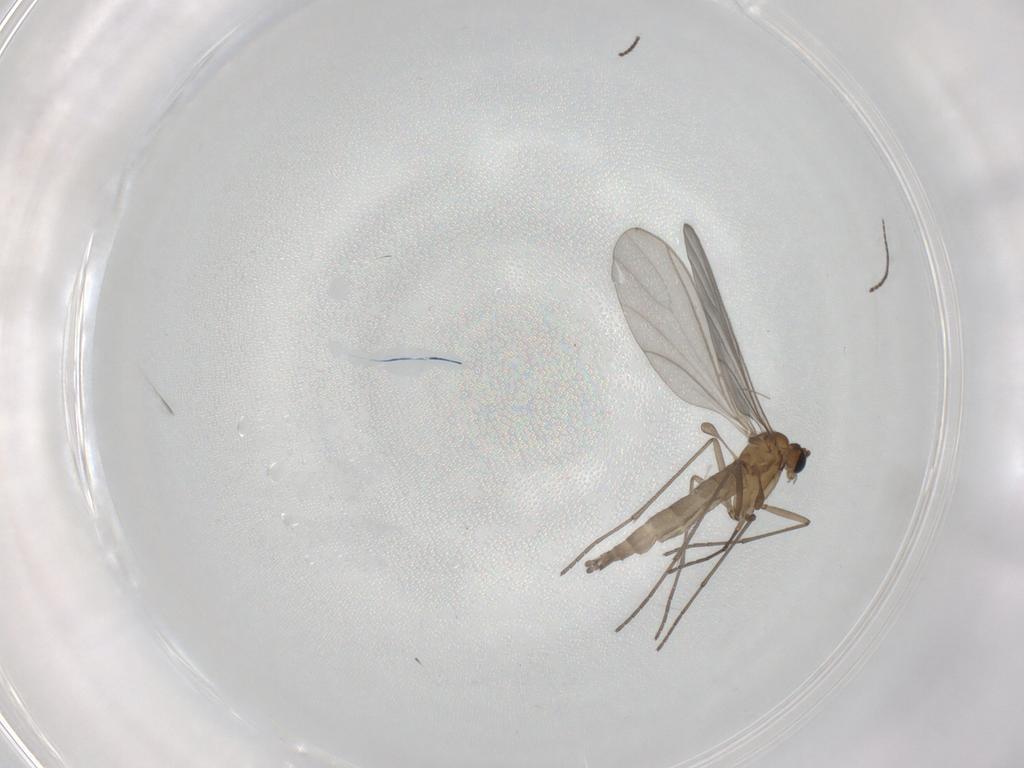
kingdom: Animalia
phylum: Arthropoda
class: Insecta
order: Diptera
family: Sciaridae
